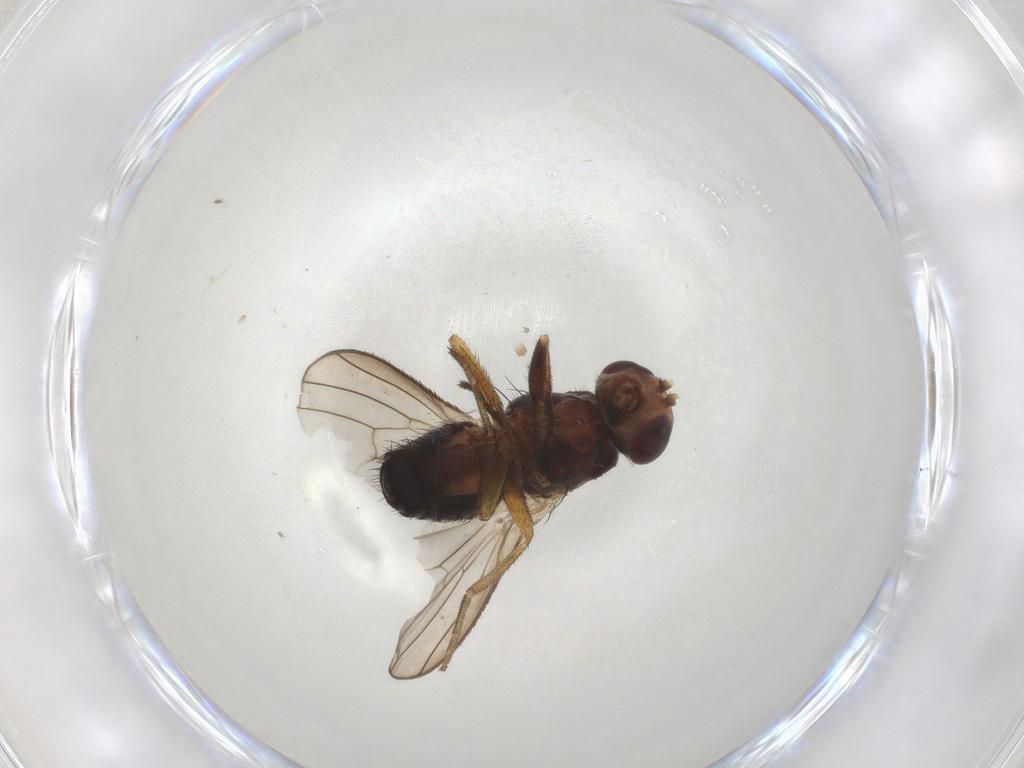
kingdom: Animalia
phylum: Arthropoda
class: Insecta
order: Diptera
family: Heleomyzidae
